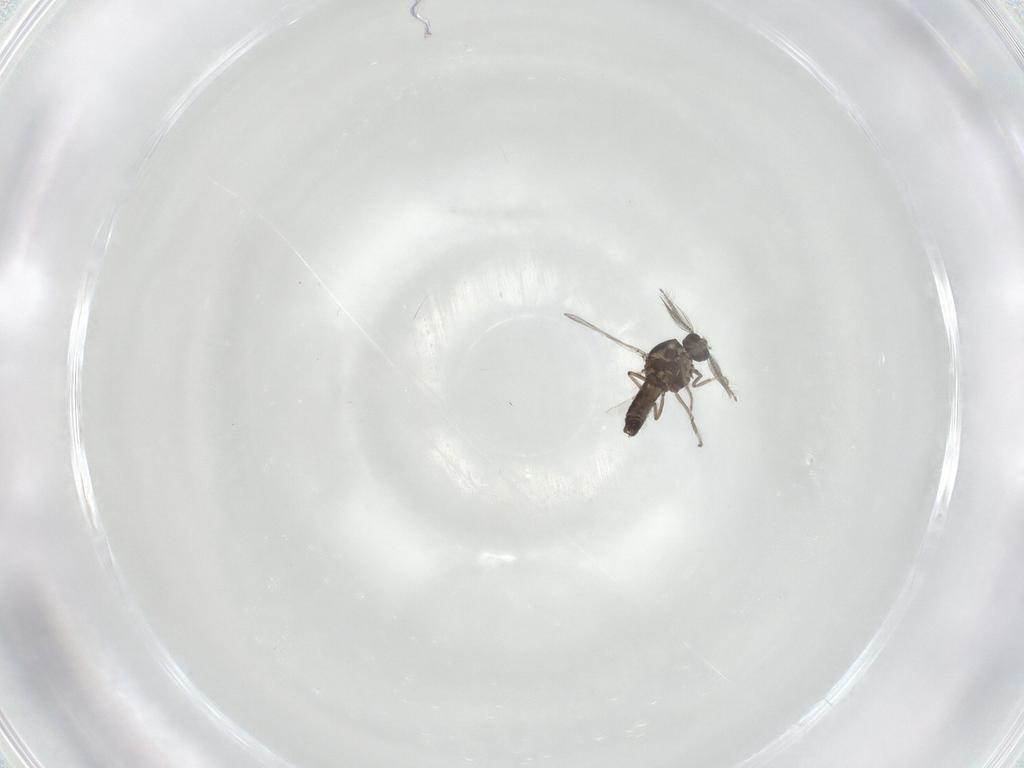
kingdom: Animalia
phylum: Arthropoda
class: Insecta
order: Diptera
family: Ceratopogonidae
